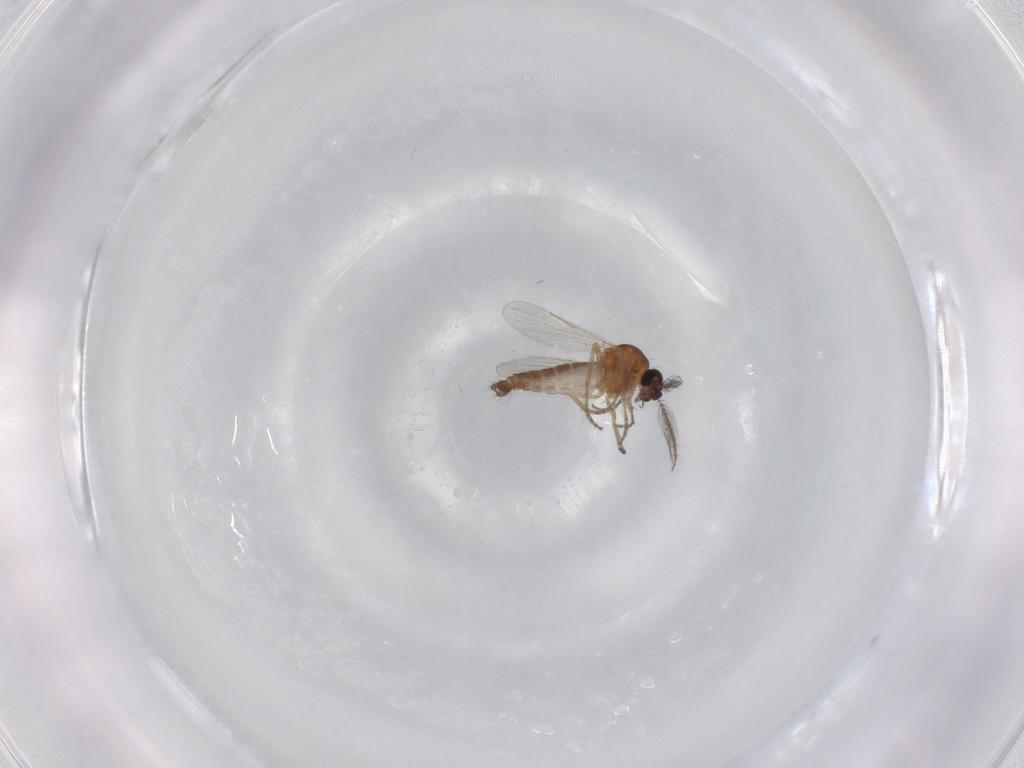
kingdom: Animalia
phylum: Arthropoda
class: Insecta
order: Diptera
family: Ceratopogonidae
